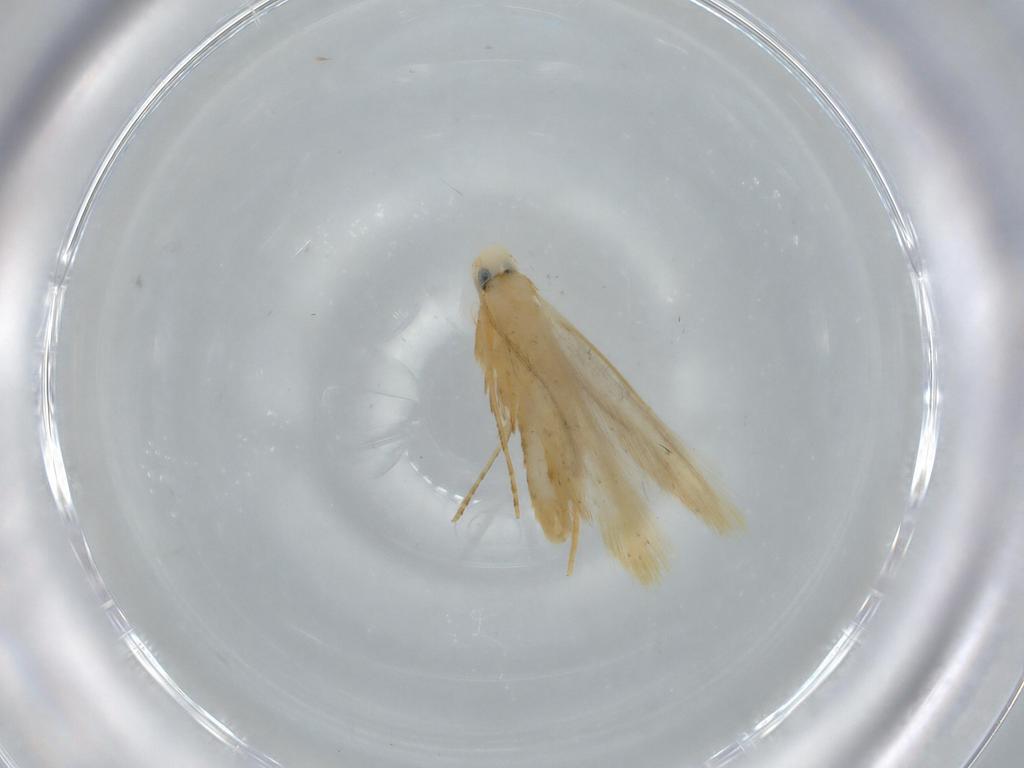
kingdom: Animalia
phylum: Arthropoda
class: Insecta
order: Lepidoptera
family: Tischeriidae
